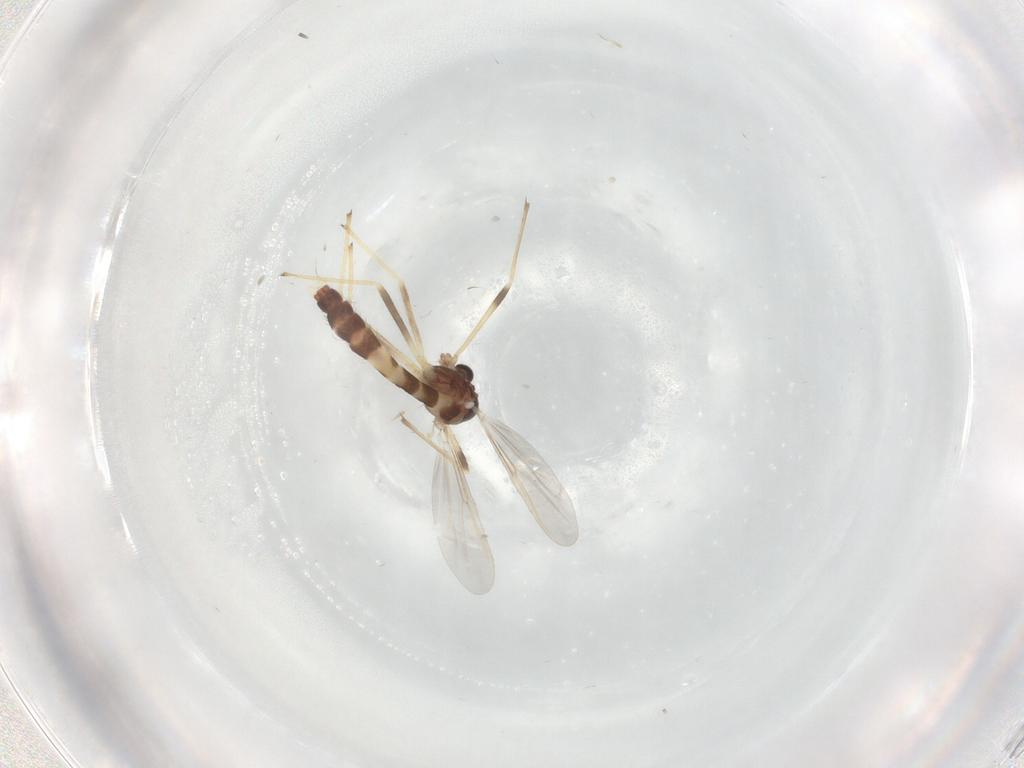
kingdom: Animalia
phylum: Arthropoda
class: Insecta
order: Diptera
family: Chironomidae
